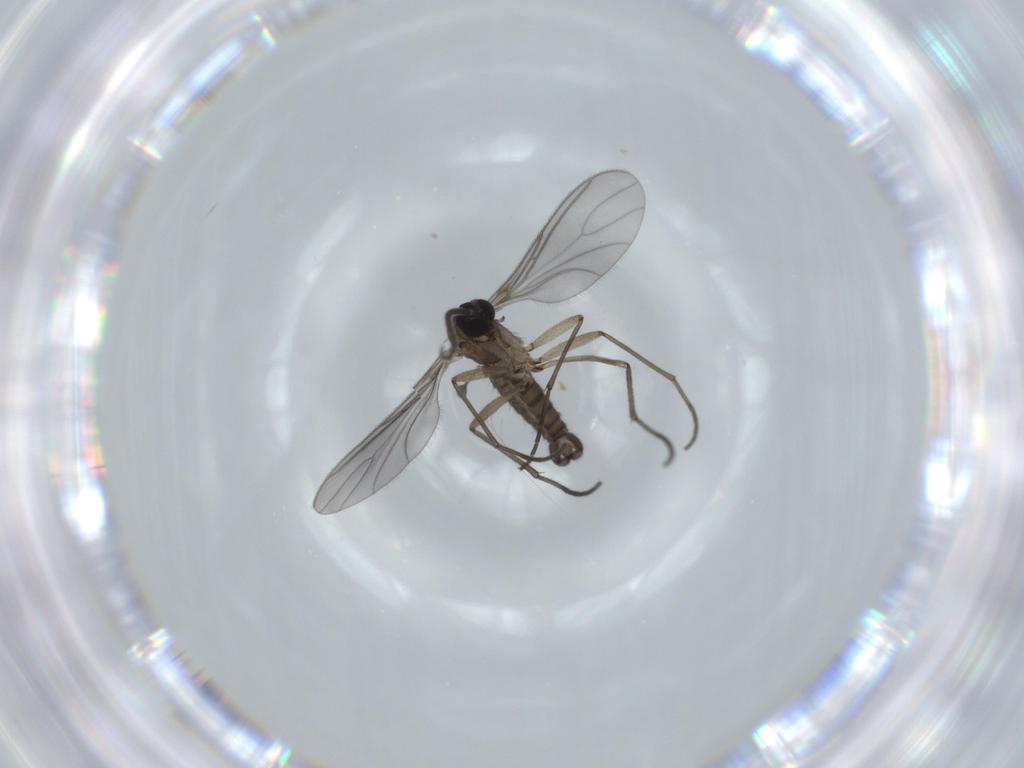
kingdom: Animalia
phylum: Arthropoda
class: Insecta
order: Diptera
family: Sciaridae
